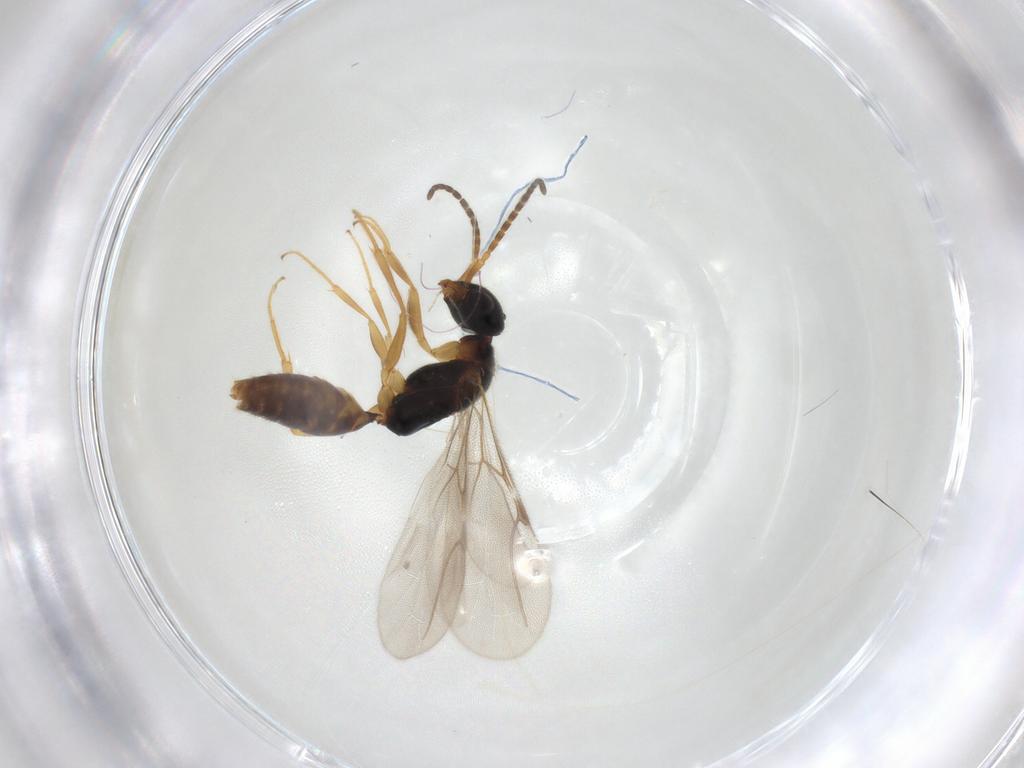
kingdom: Animalia
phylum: Arthropoda
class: Insecta
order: Hymenoptera
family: Bethylidae
